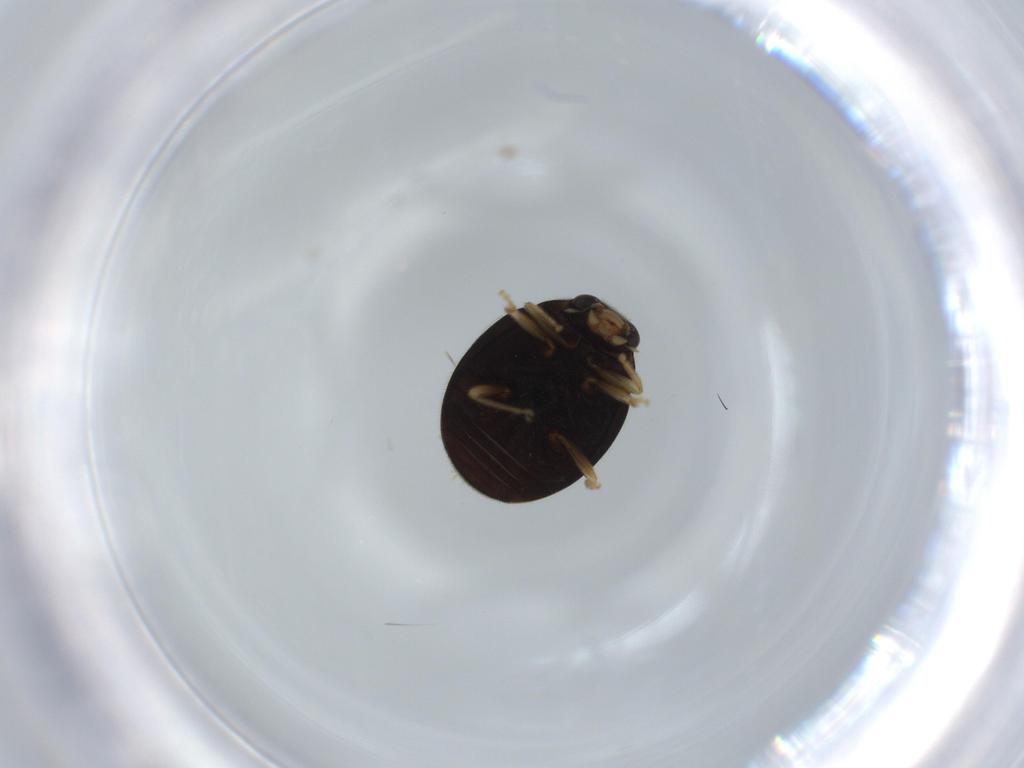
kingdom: Animalia
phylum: Arthropoda
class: Insecta
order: Coleoptera
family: Coccinellidae
